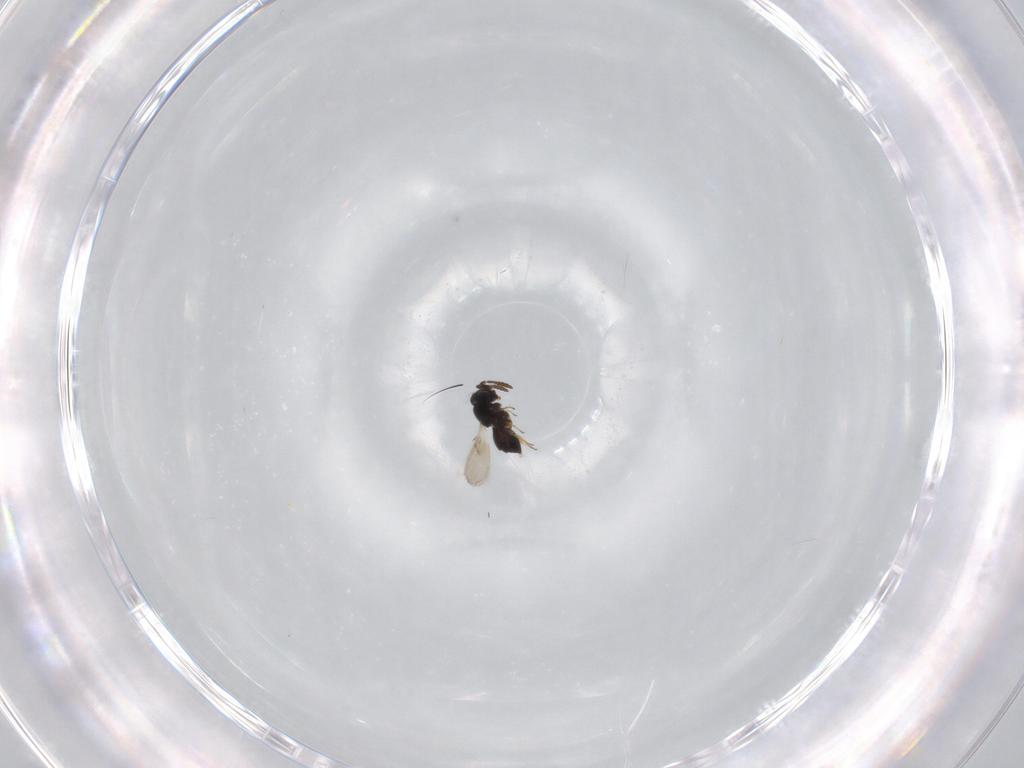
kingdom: Animalia
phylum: Arthropoda
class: Insecta
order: Hymenoptera
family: Scelionidae
